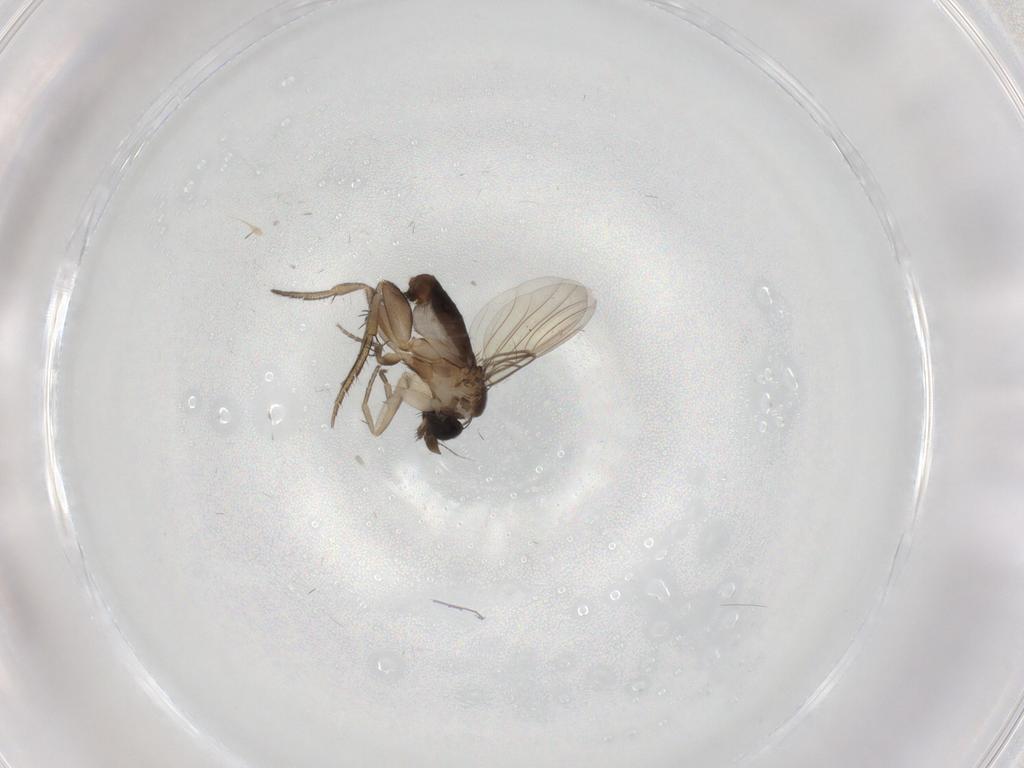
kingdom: Animalia
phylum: Arthropoda
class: Insecta
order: Diptera
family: Phoridae
